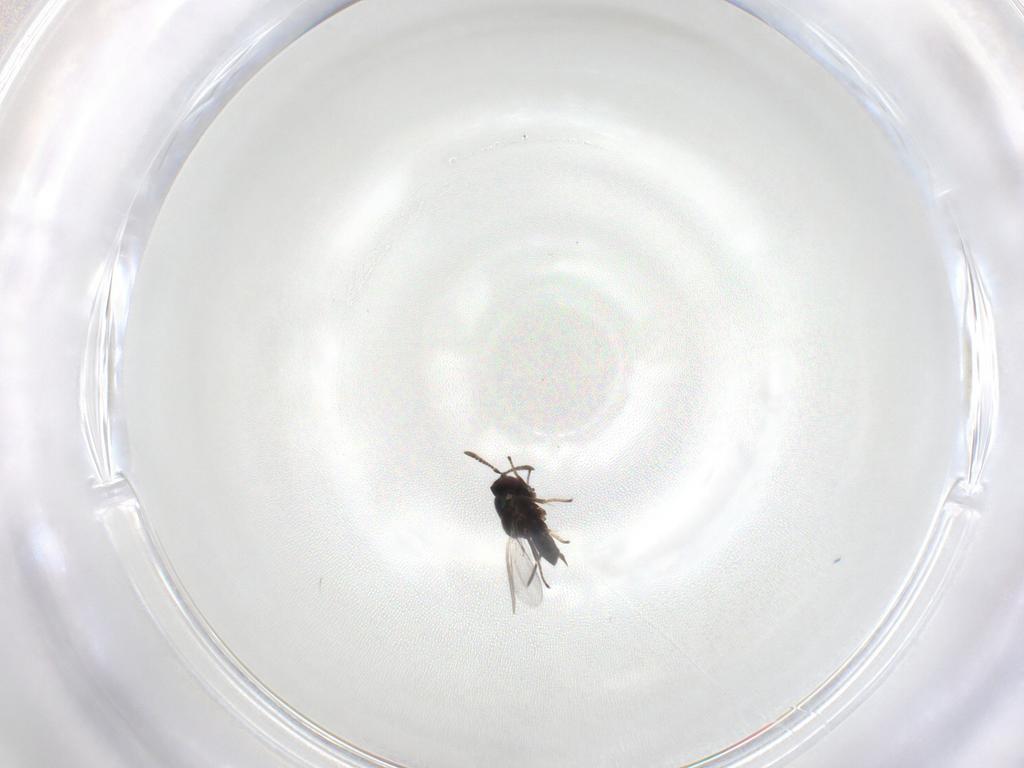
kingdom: Animalia
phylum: Arthropoda
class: Insecta
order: Hymenoptera
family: Encyrtidae
